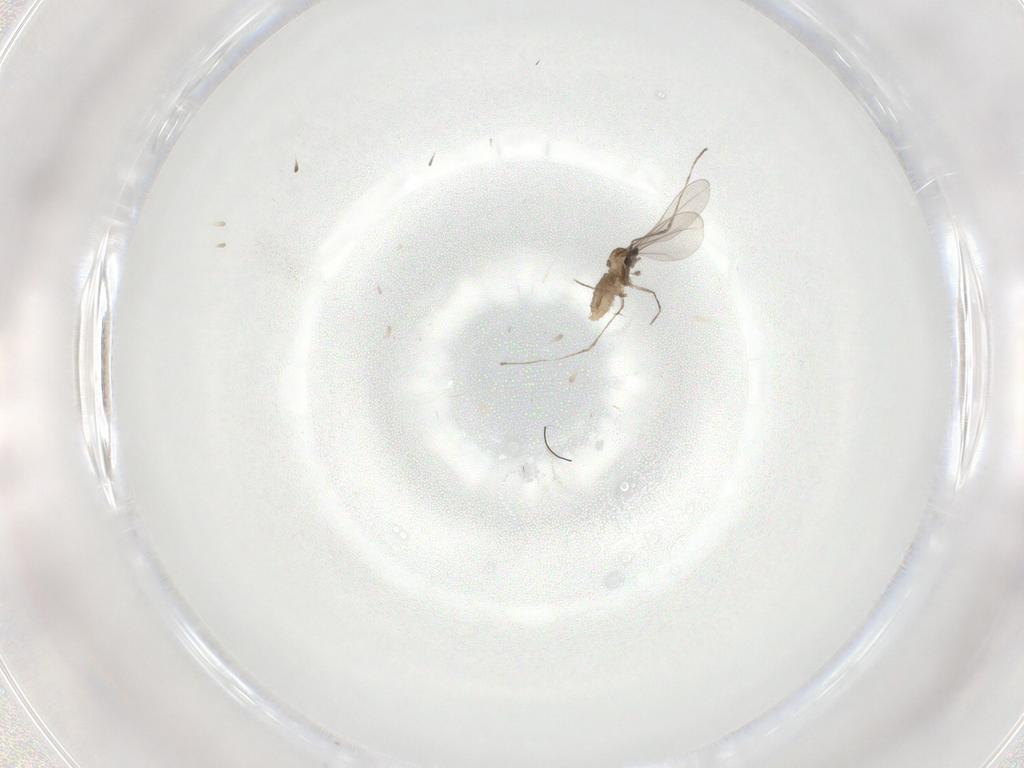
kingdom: Animalia
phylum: Arthropoda
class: Insecta
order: Diptera
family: Cecidomyiidae
